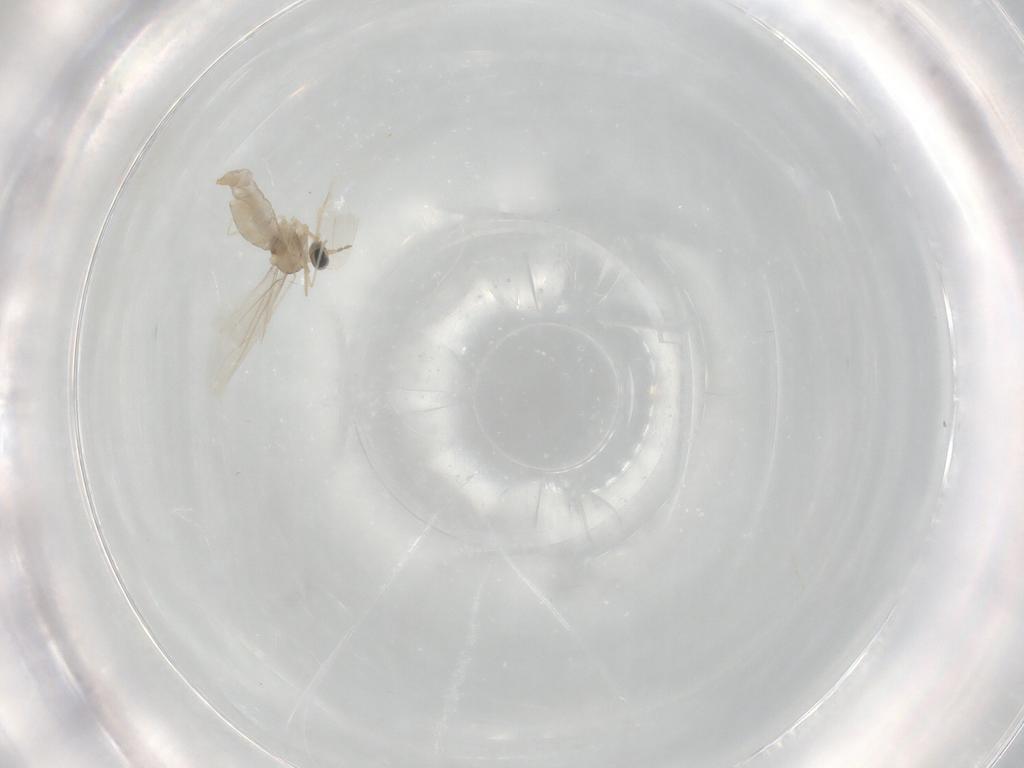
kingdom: Animalia
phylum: Arthropoda
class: Insecta
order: Diptera
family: Cecidomyiidae
